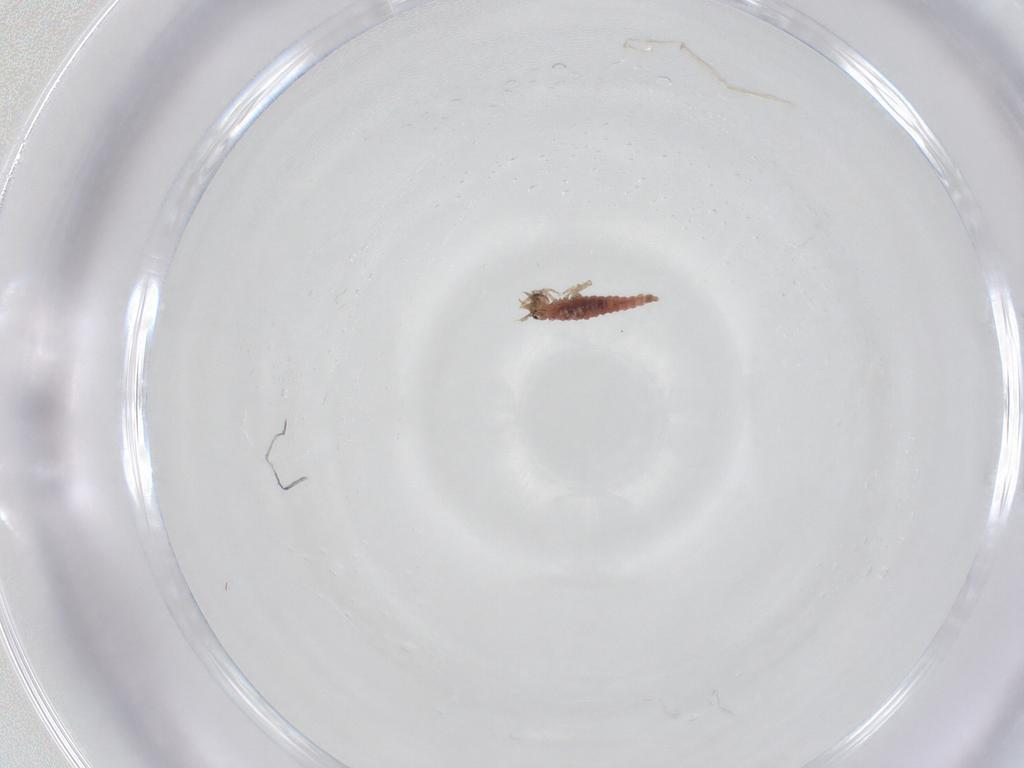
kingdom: Animalia
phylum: Arthropoda
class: Insecta
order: Neuroptera
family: Hemerobiidae
